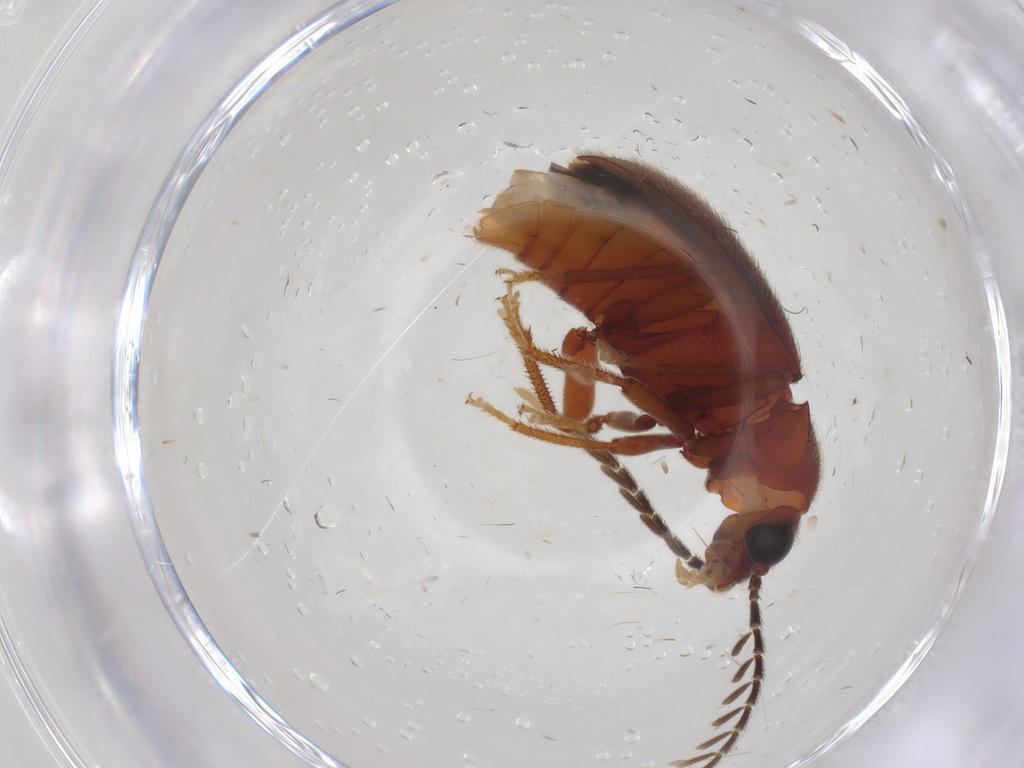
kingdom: Animalia
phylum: Arthropoda
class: Insecta
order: Coleoptera
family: Ptilodactylidae
